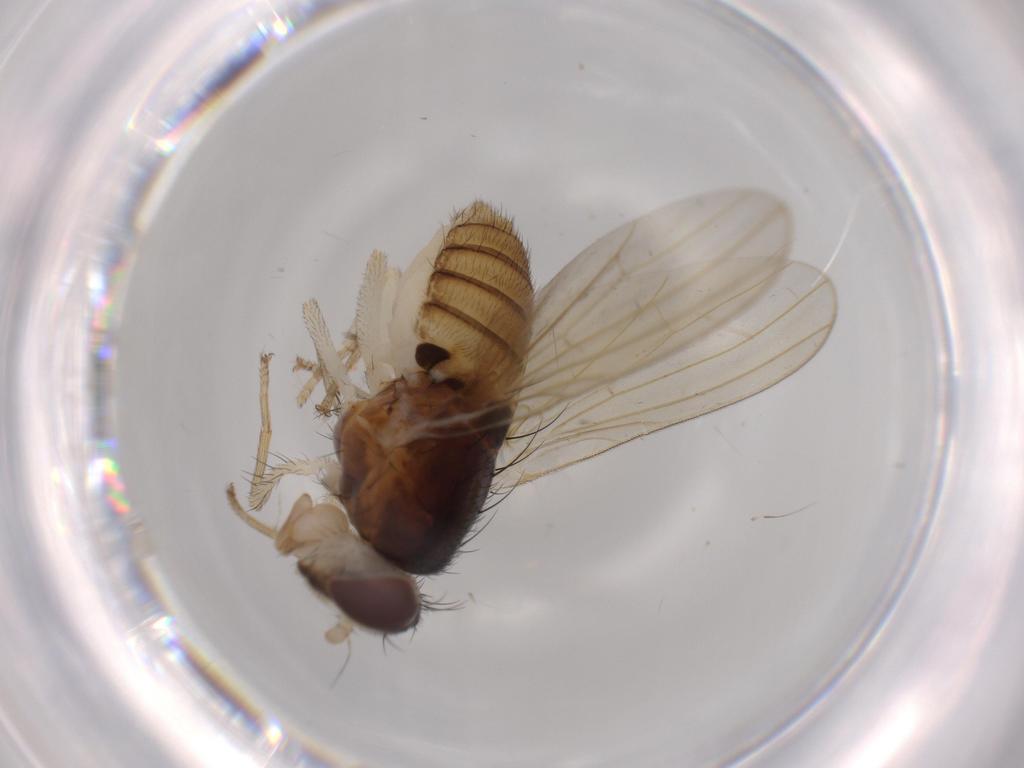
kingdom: Animalia
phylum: Arthropoda
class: Insecta
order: Diptera
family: Lauxaniidae
